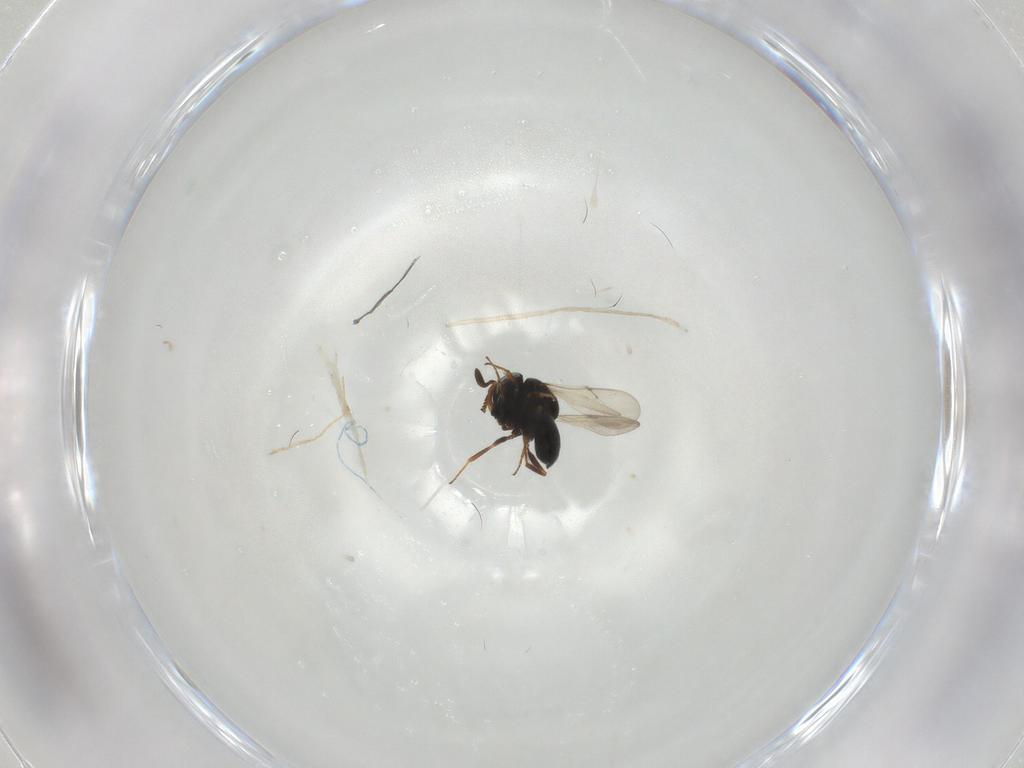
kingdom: Animalia
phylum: Arthropoda
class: Insecta
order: Hymenoptera
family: Scelionidae
